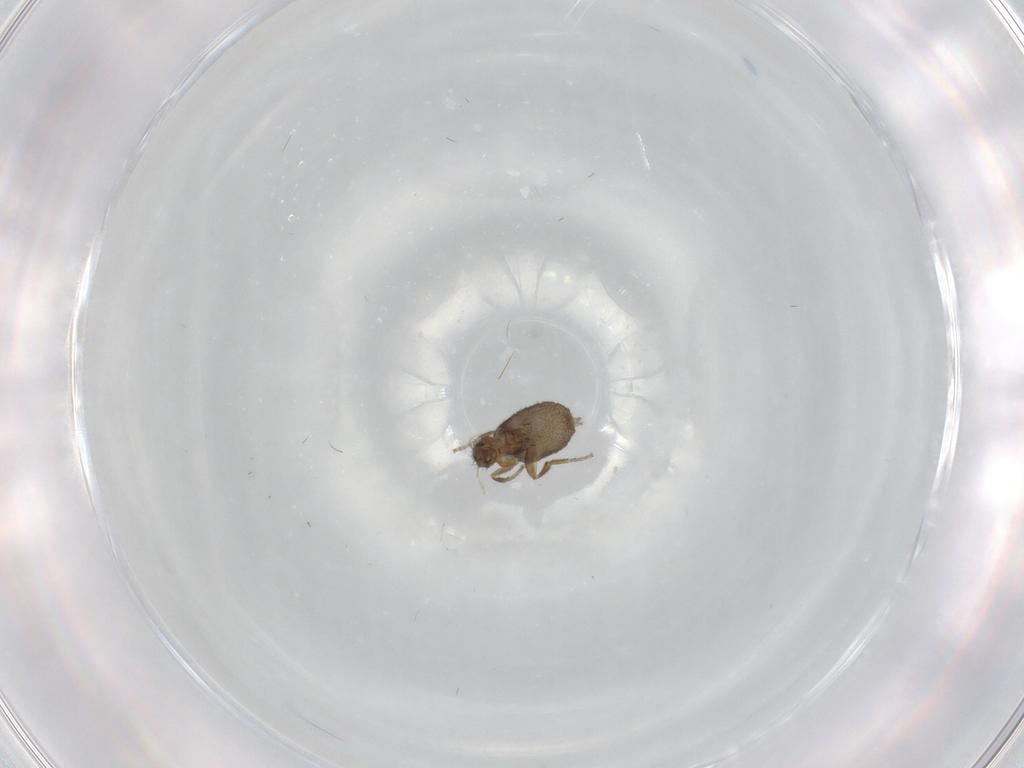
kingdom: Animalia
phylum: Arthropoda
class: Insecta
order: Diptera
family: Phoridae
